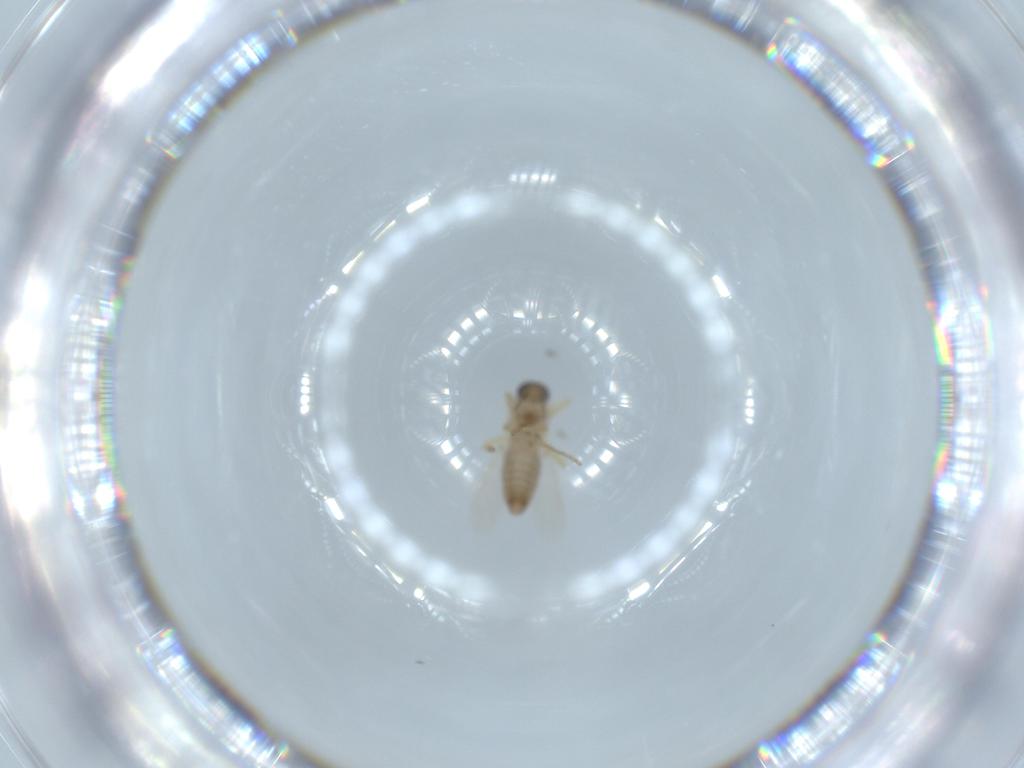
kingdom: Animalia
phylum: Arthropoda
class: Insecta
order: Diptera
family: Ceratopogonidae
